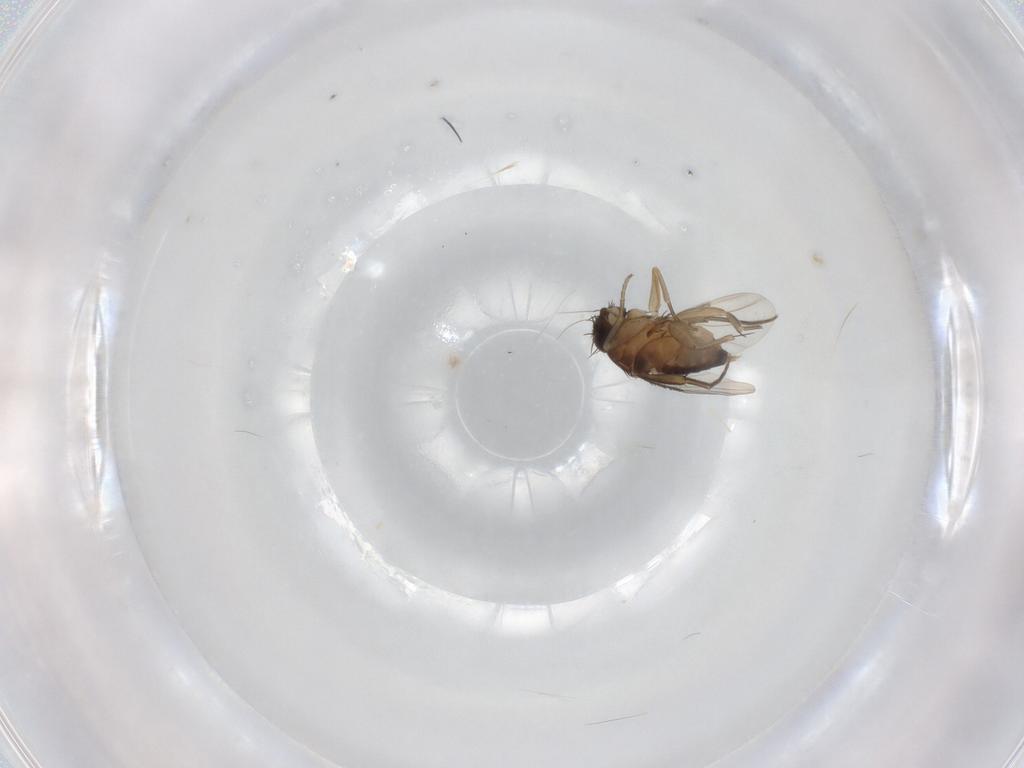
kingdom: Animalia
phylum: Arthropoda
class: Insecta
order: Diptera
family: Phoridae
